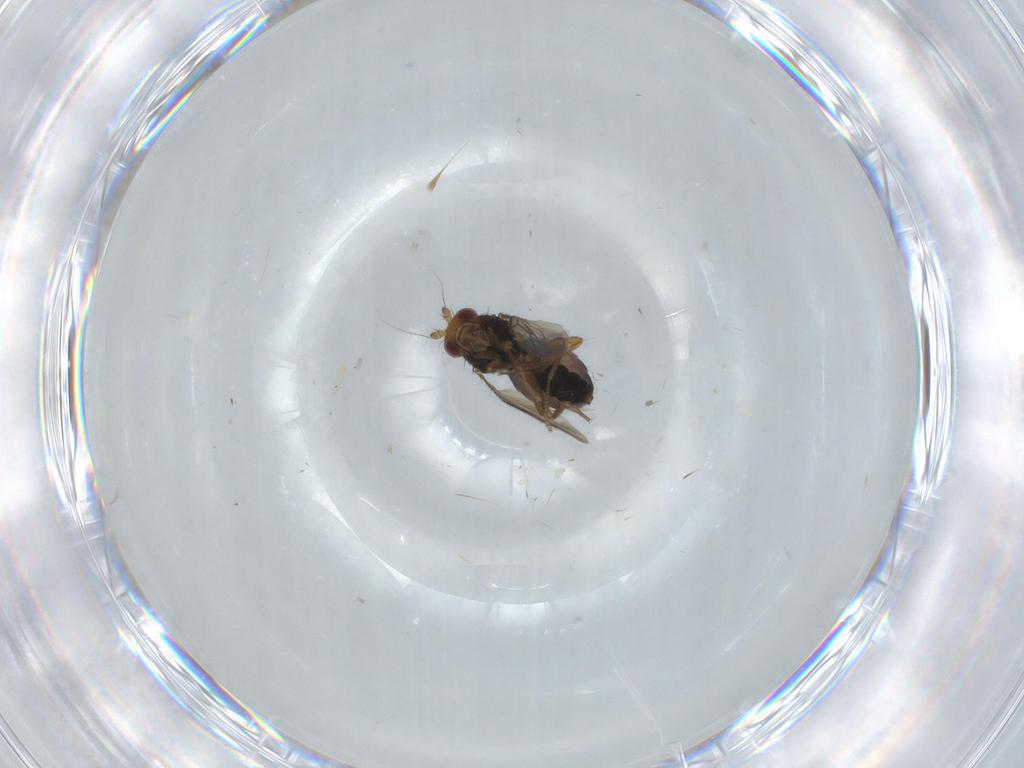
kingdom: Animalia
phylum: Arthropoda
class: Insecta
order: Diptera
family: Sphaeroceridae
